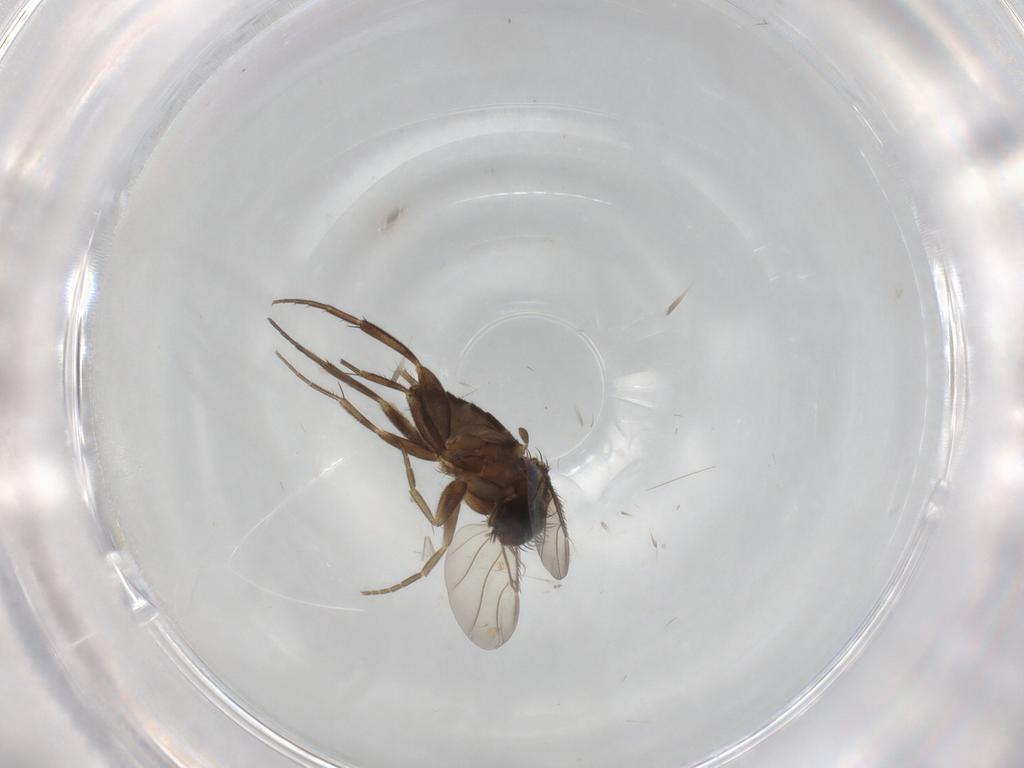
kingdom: Animalia
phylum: Arthropoda
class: Insecta
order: Diptera
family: Phoridae
